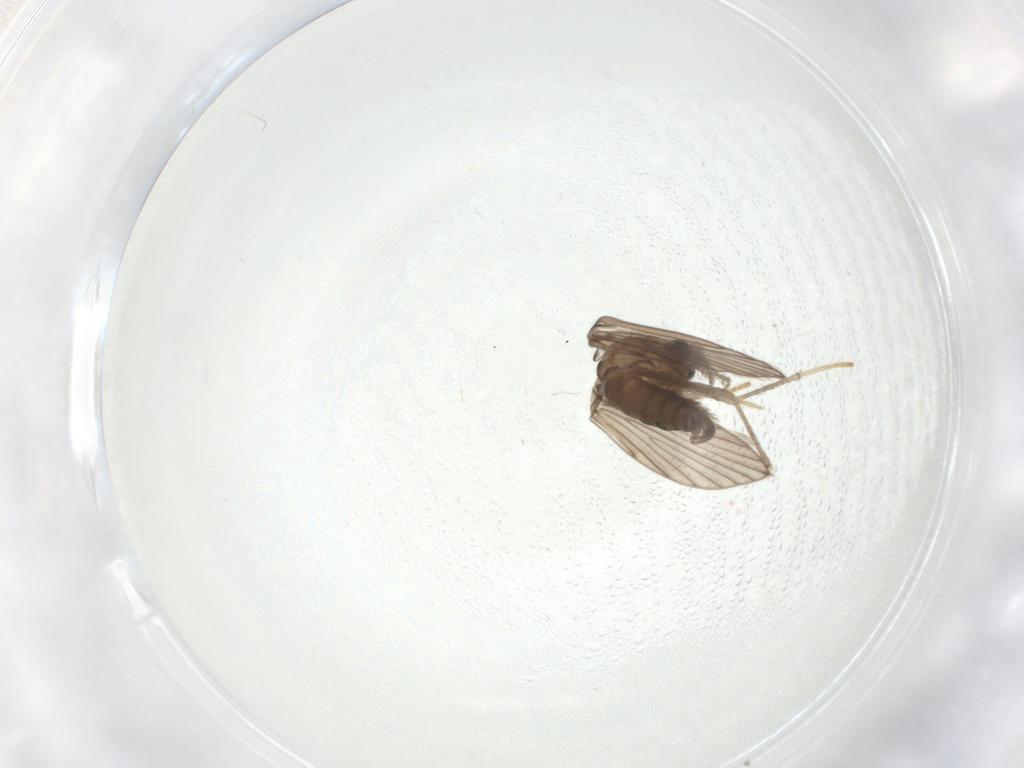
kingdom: Animalia
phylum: Arthropoda
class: Insecta
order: Diptera
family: Psychodidae
